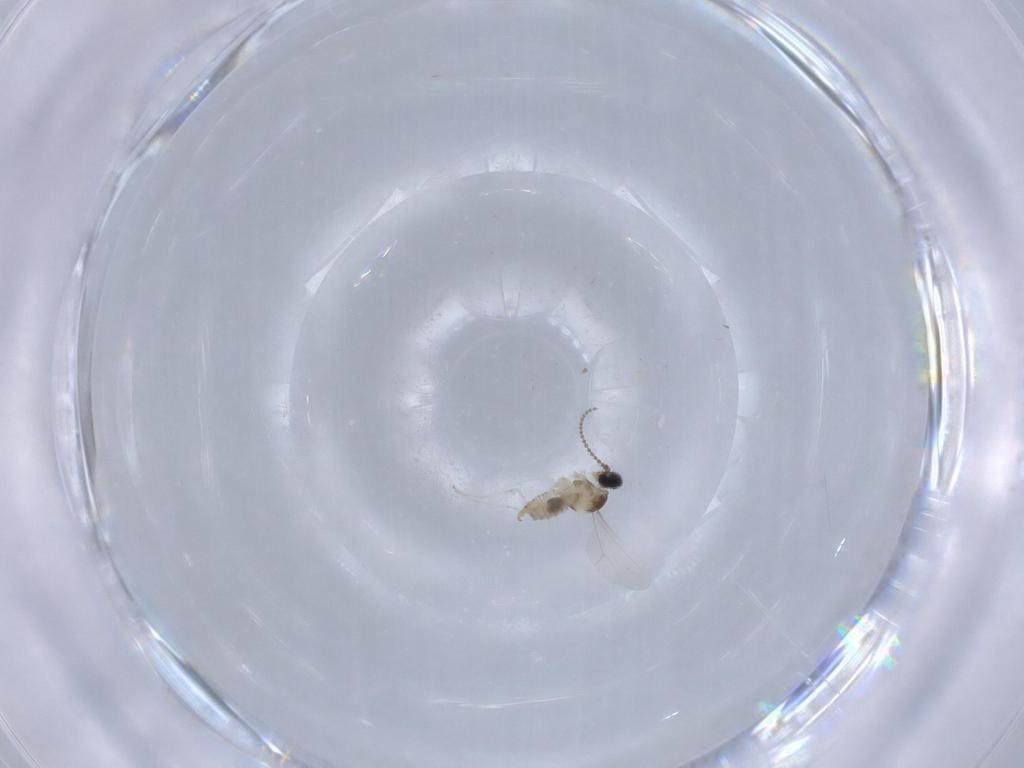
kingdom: Animalia
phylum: Arthropoda
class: Insecta
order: Diptera
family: Cecidomyiidae
